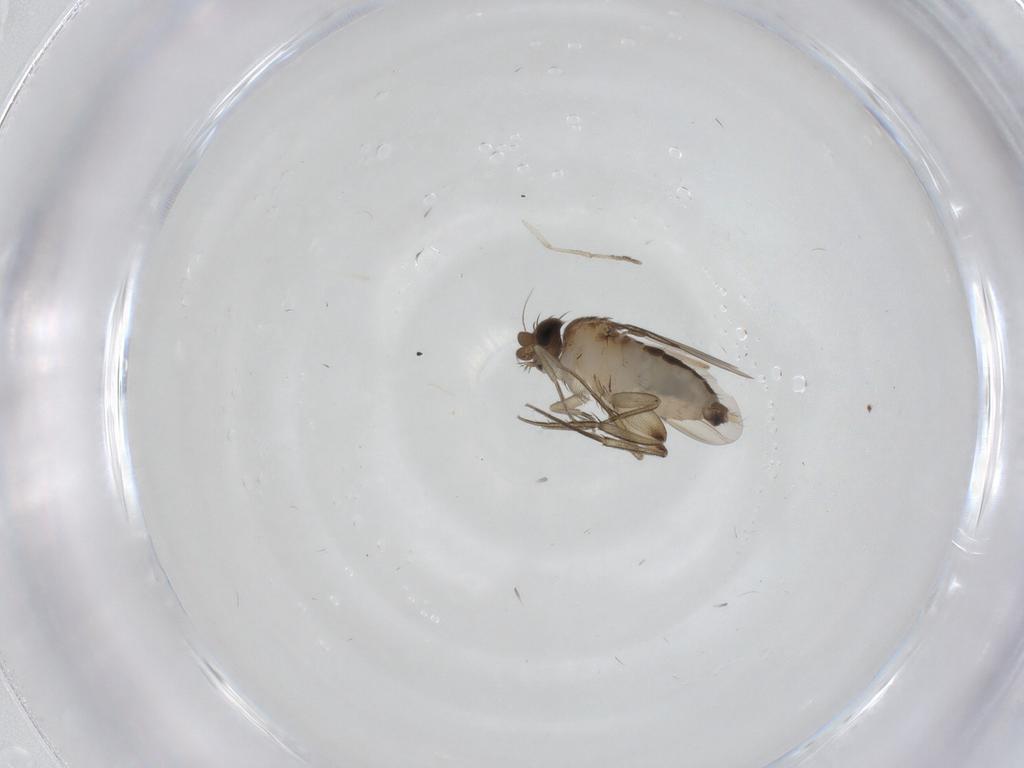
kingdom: Animalia
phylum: Arthropoda
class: Insecta
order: Diptera
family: Phoridae
